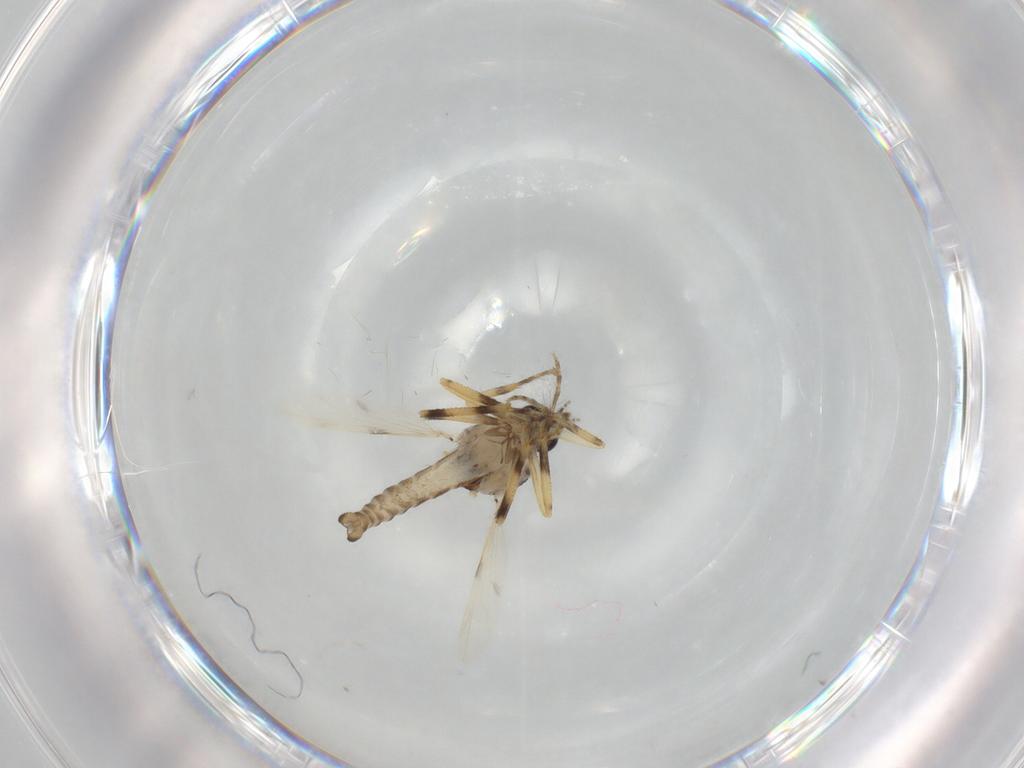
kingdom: Animalia
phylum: Arthropoda
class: Insecta
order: Diptera
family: Ceratopogonidae
